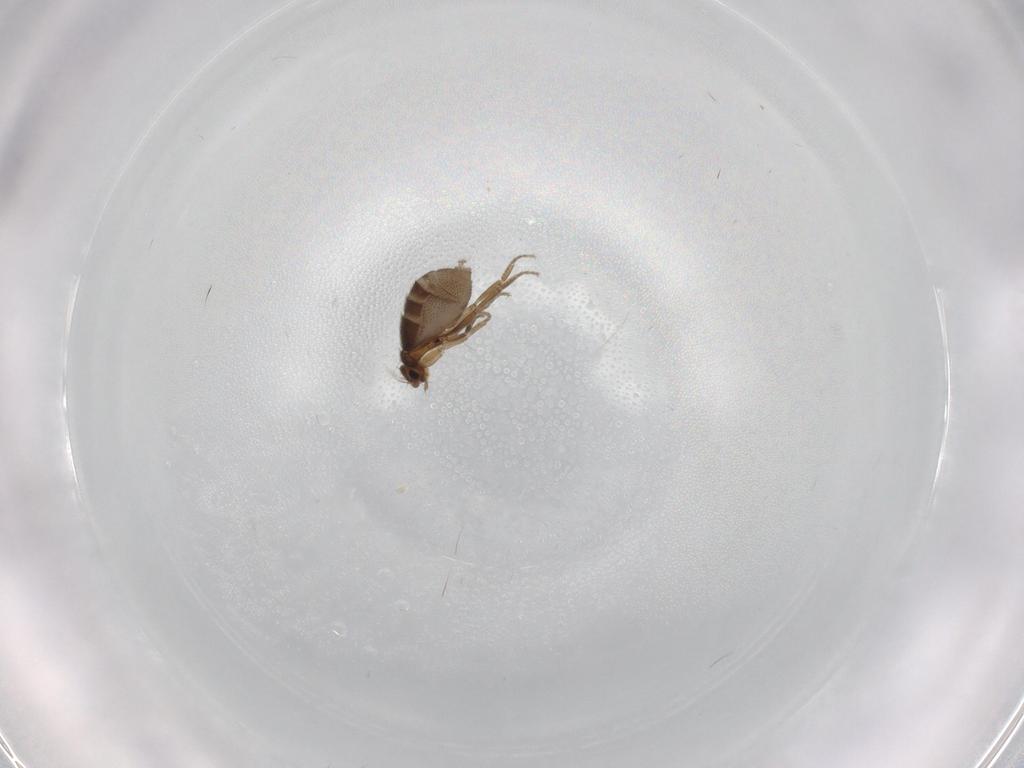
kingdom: Animalia
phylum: Arthropoda
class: Insecta
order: Diptera
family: Phoridae
